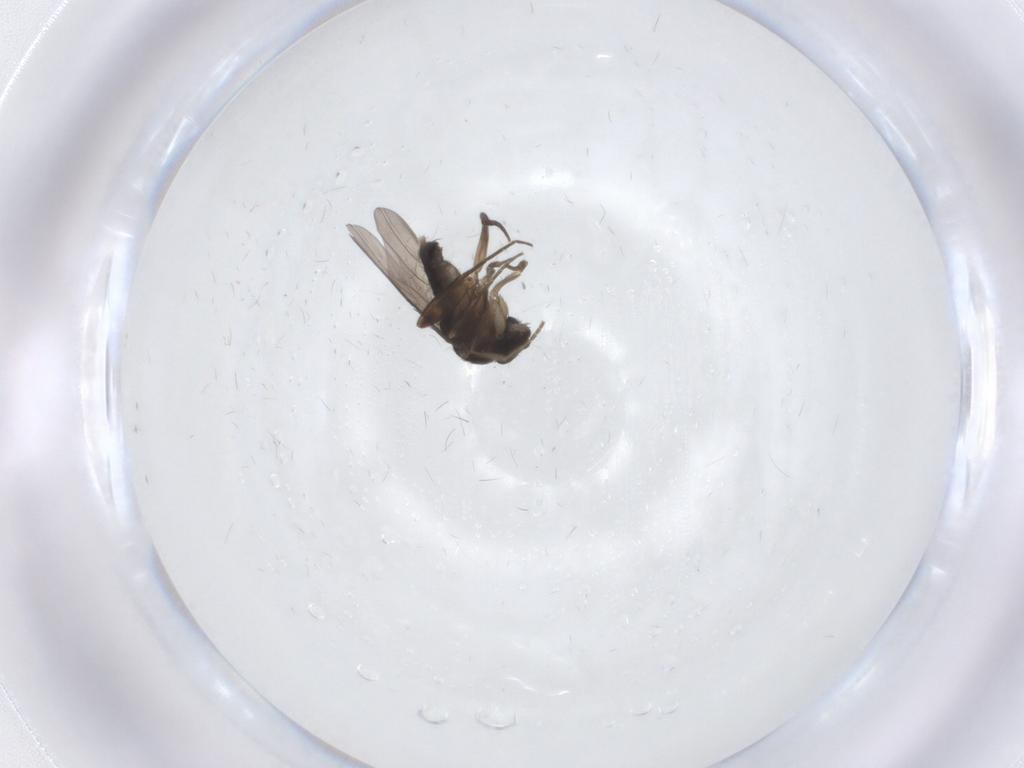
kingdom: Animalia
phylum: Arthropoda
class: Insecta
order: Diptera
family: Phoridae
